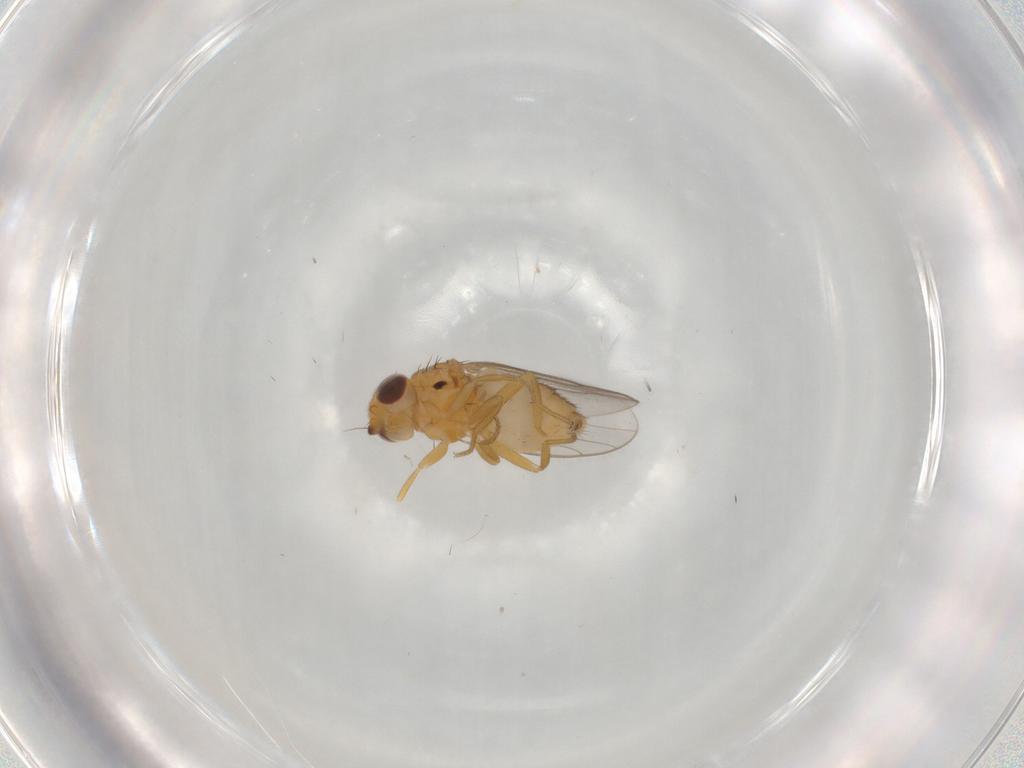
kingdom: Animalia
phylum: Arthropoda
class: Insecta
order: Diptera
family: Chloropidae
